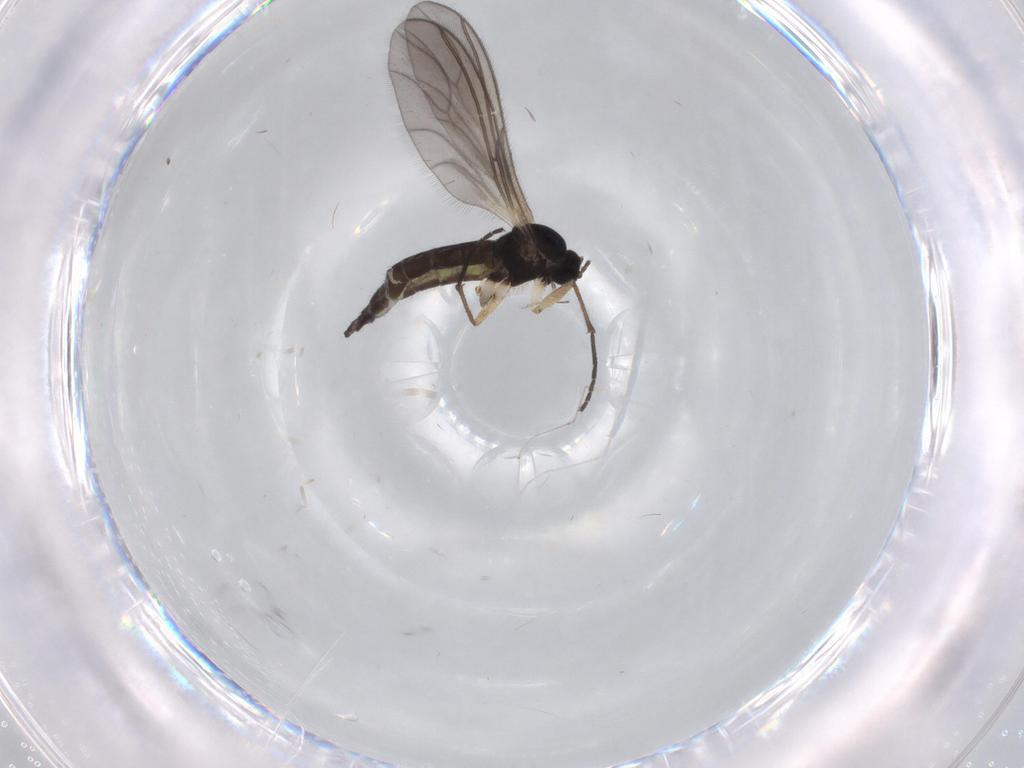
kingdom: Animalia
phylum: Arthropoda
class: Insecta
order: Diptera
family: Sciaridae
